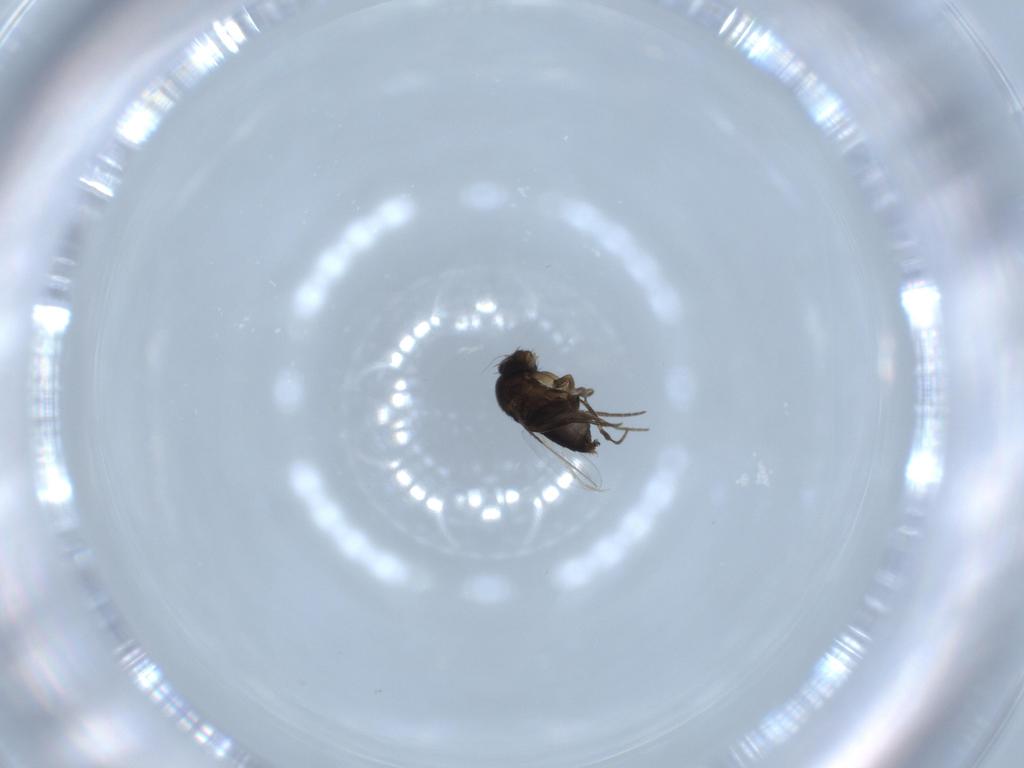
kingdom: Animalia
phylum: Arthropoda
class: Insecta
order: Diptera
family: Phoridae
